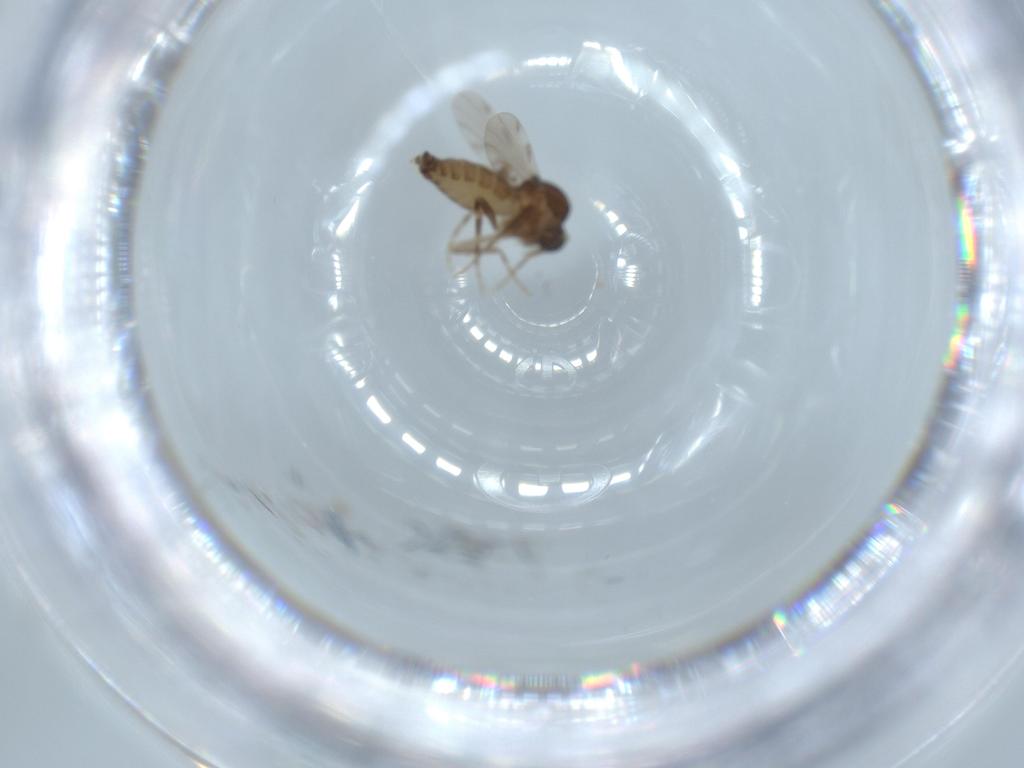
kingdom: Animalia
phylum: Arthropoda
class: Insecta
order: Diptera
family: Ceratopogonidae
